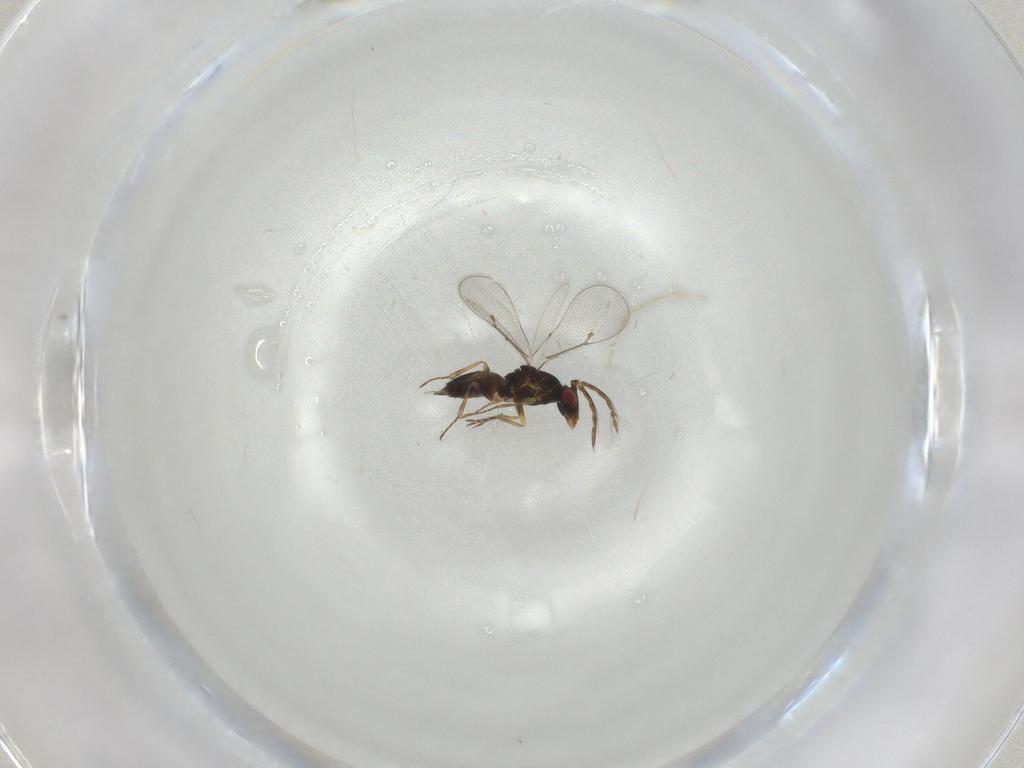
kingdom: Animalia
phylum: Arthropoda
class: Insecta
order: Hymenoptera
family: Eulophidae
